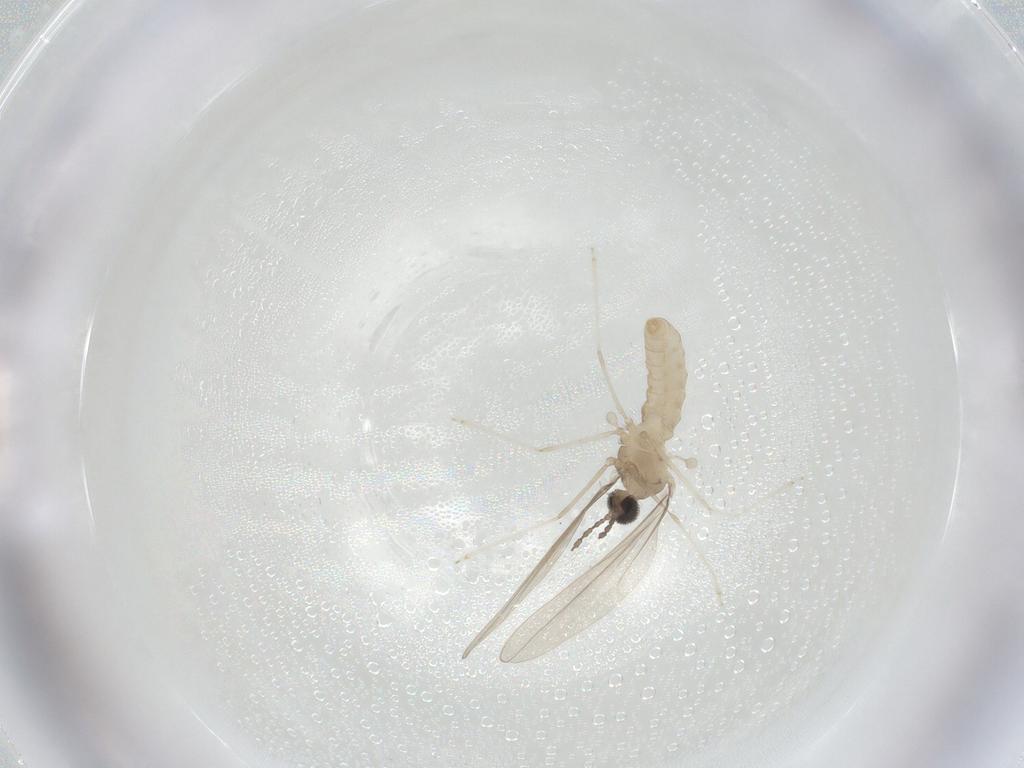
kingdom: Animalia
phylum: Arthropoda
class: Insecta
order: Diptera
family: Cecidomyiidae
